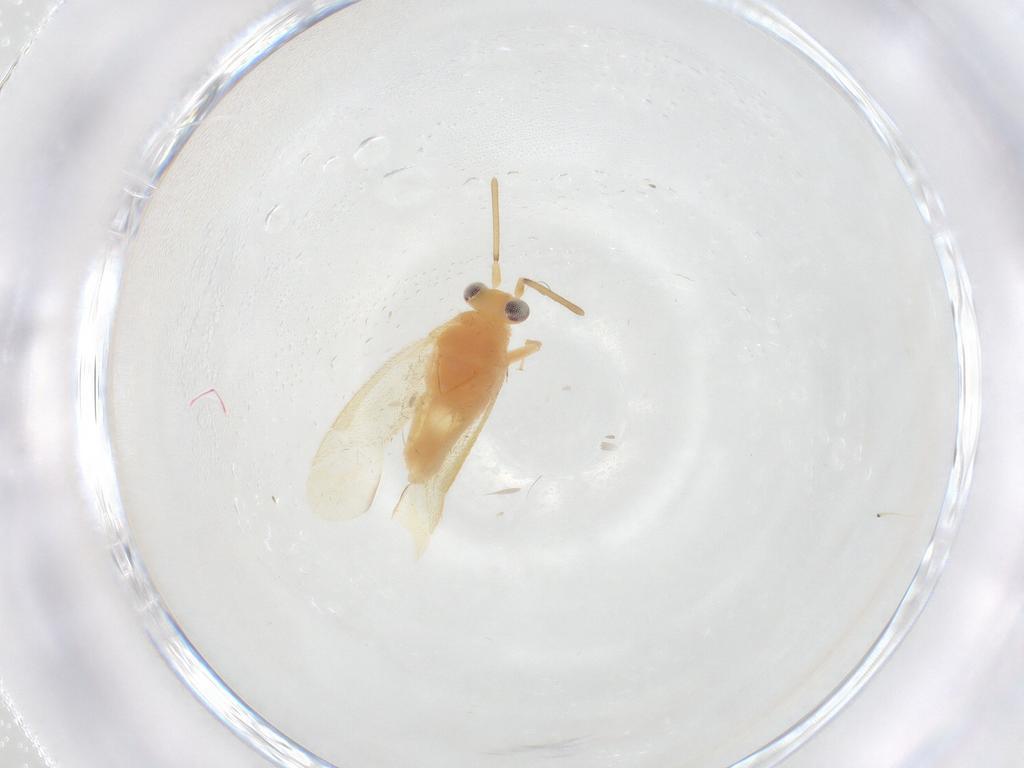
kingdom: Animalia
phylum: Arthropoda
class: Insecta
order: Hemiptera
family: Miridae
